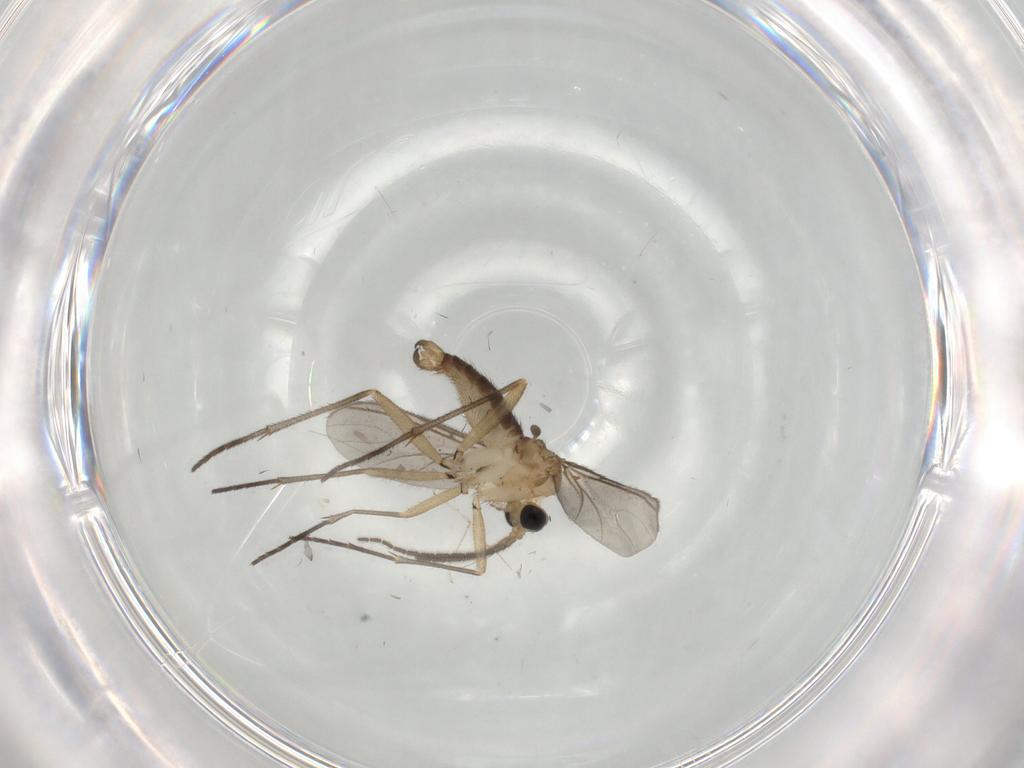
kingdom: Animalia
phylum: Arthropoda
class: Insecta
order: Diptera
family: Sciaridae
